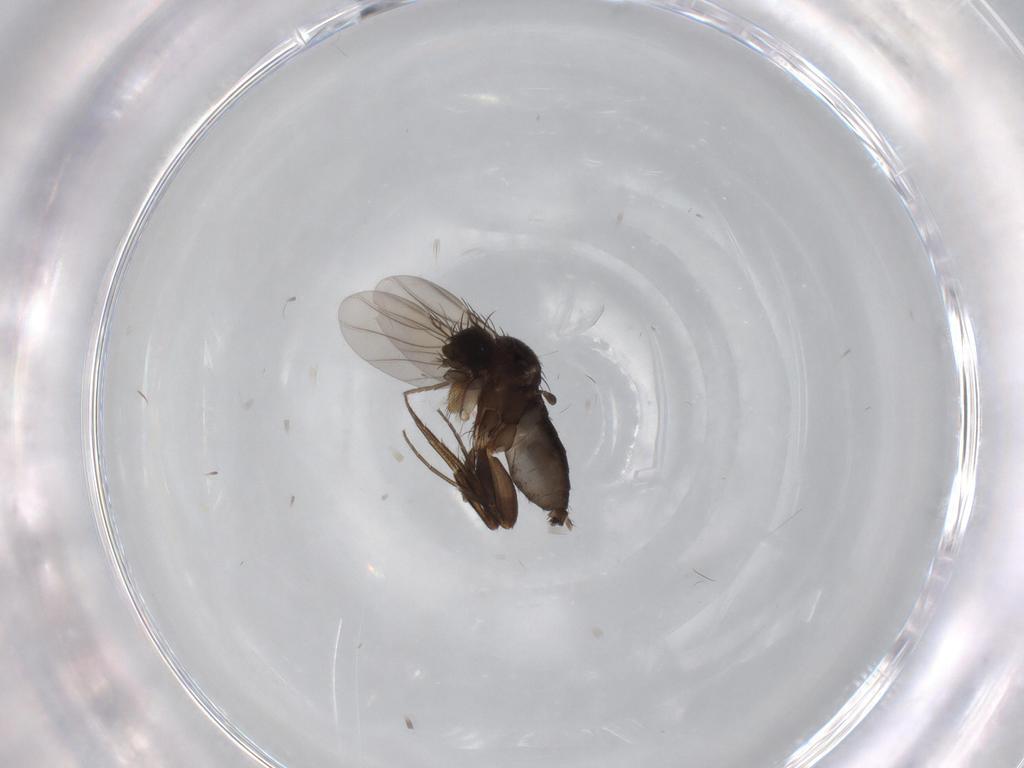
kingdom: Animalia
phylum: Arthropoda
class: Insecta
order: Diptera
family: Phoridae
